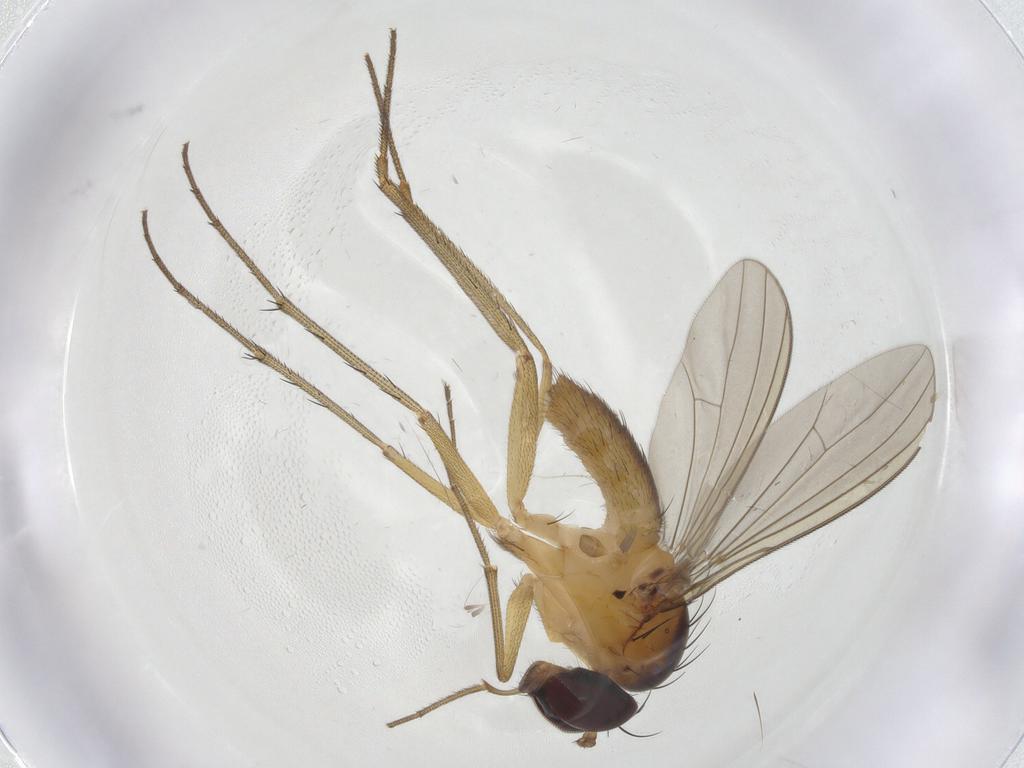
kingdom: Animalia
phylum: Arthropoda
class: Insecta
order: Diptera
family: Dolichopodidae
